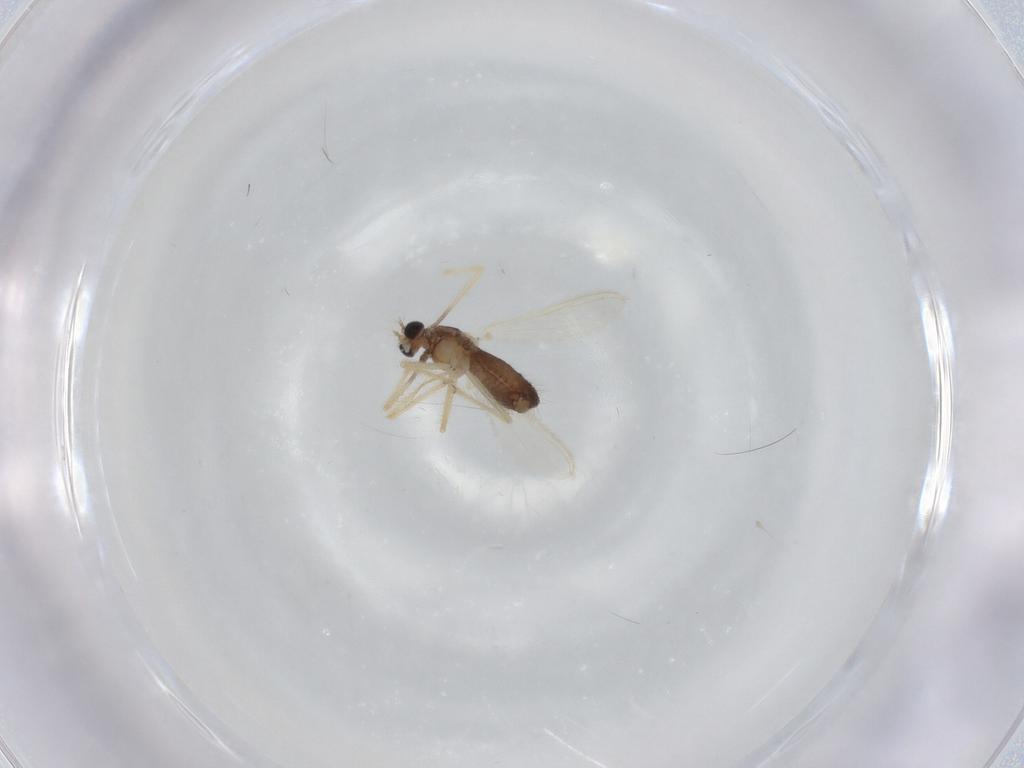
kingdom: Animalia
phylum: Arthropoda
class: Insecta
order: Diptera
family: Chironomidae
